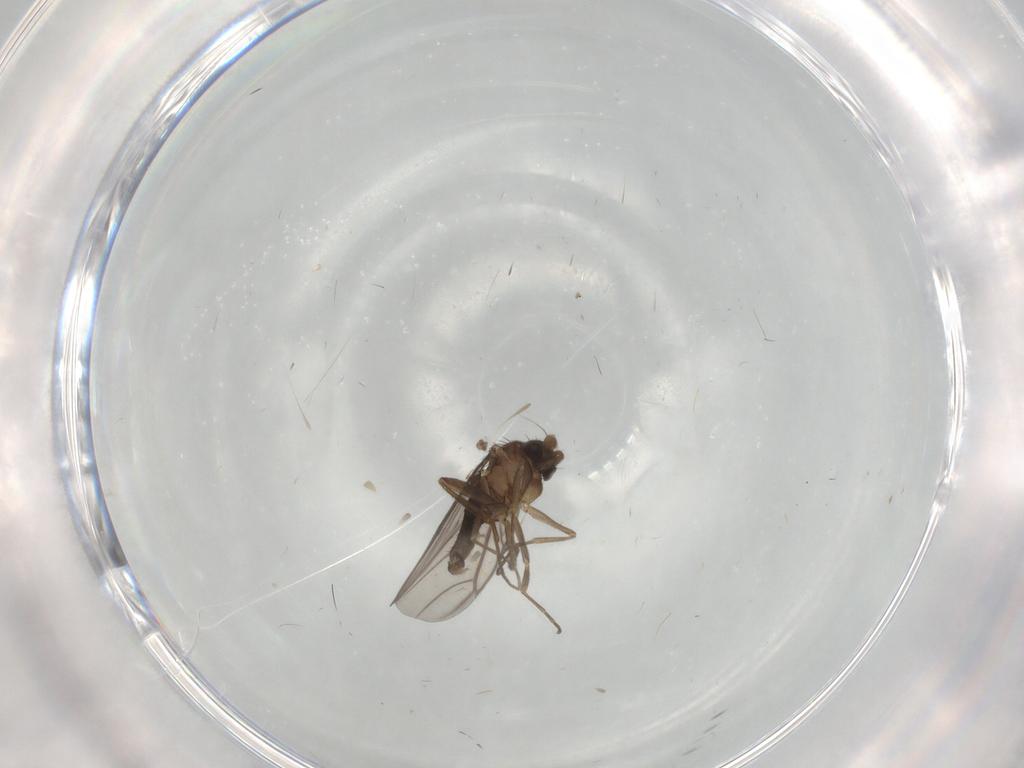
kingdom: Animalia
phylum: Arthropoda
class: Insecta
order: Diptera
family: Cecidomyiidae
